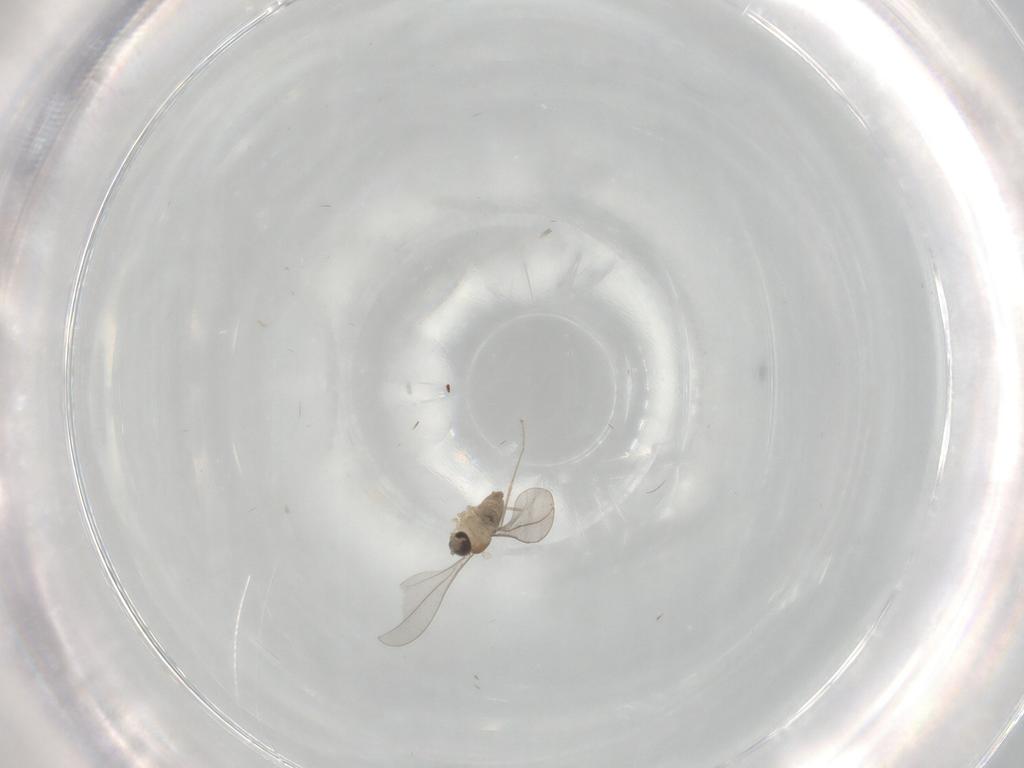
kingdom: Animalia
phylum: Arthropoda
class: Insecta
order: Diptera
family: Cecidomyiidae
